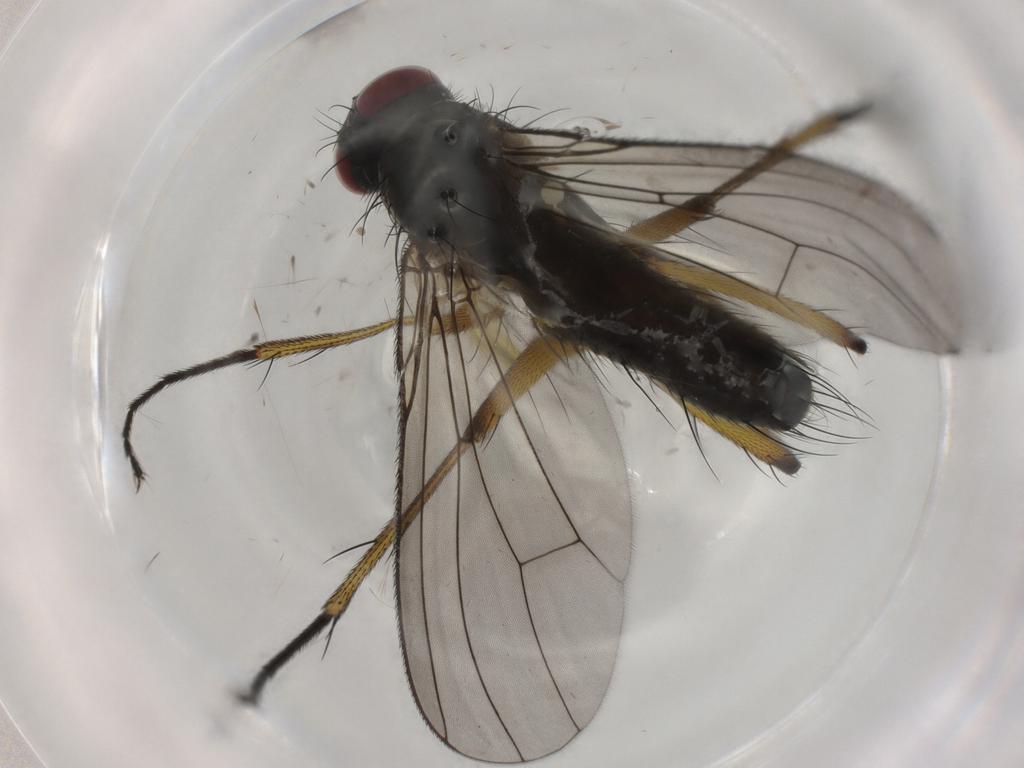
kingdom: Animalia
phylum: Arthropoda
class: Insecta
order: Diptera
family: Muscidae
